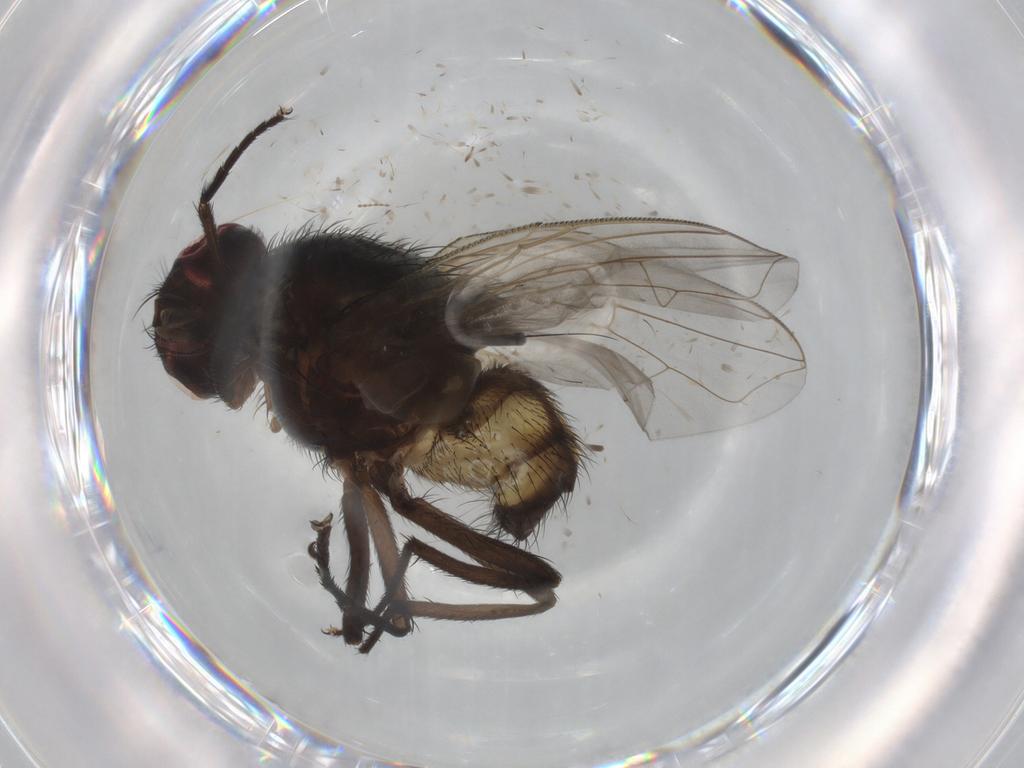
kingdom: Animalia
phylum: Arthropoda
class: Insecta
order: Diptera
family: Muscidae
